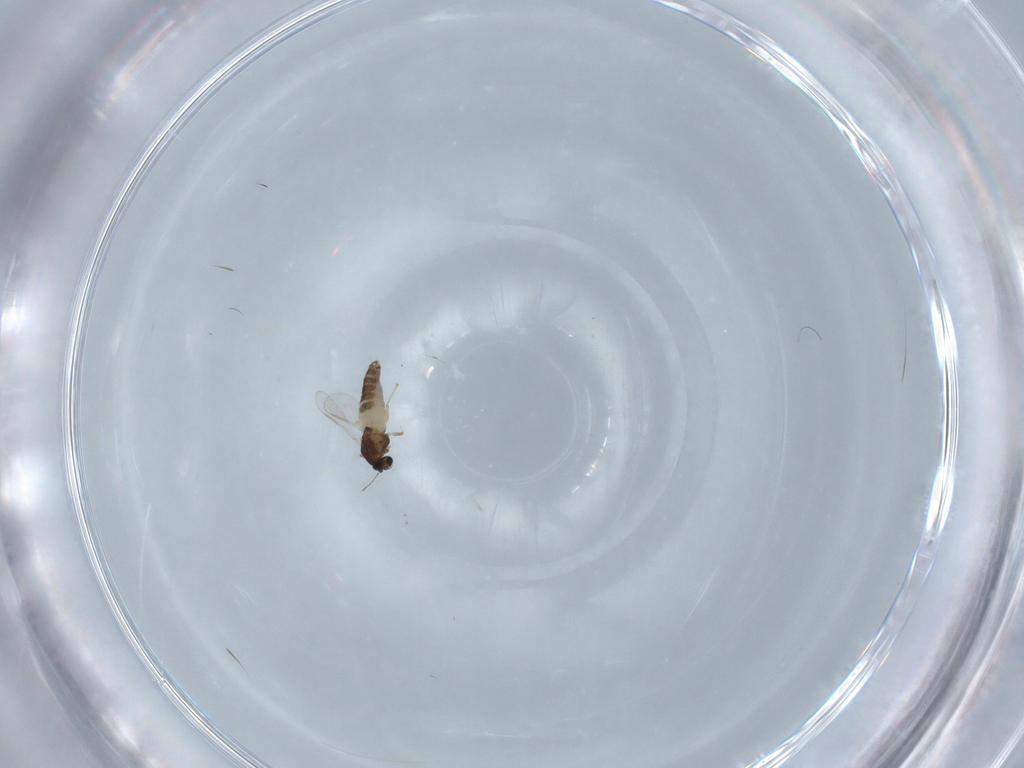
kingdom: Animalia
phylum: Arthropoda
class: Insecta
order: Diptera
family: Chironomidae
